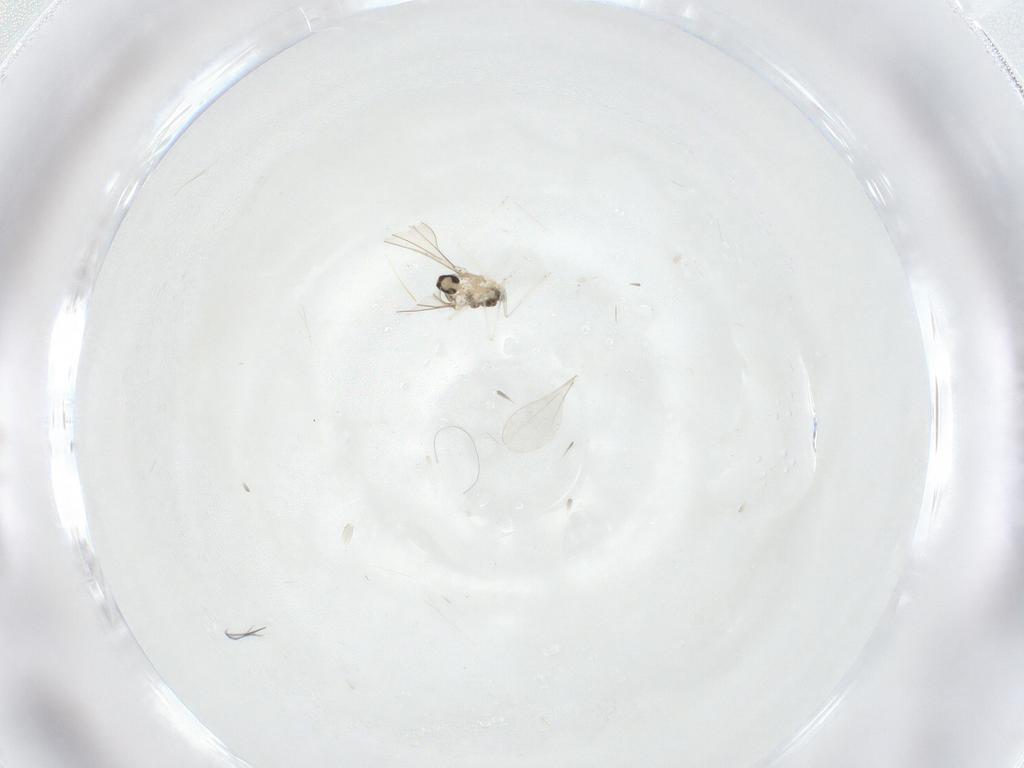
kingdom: Animalia
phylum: Arthropoda
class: Insecta
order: Diptera
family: Cecidomyiidae
